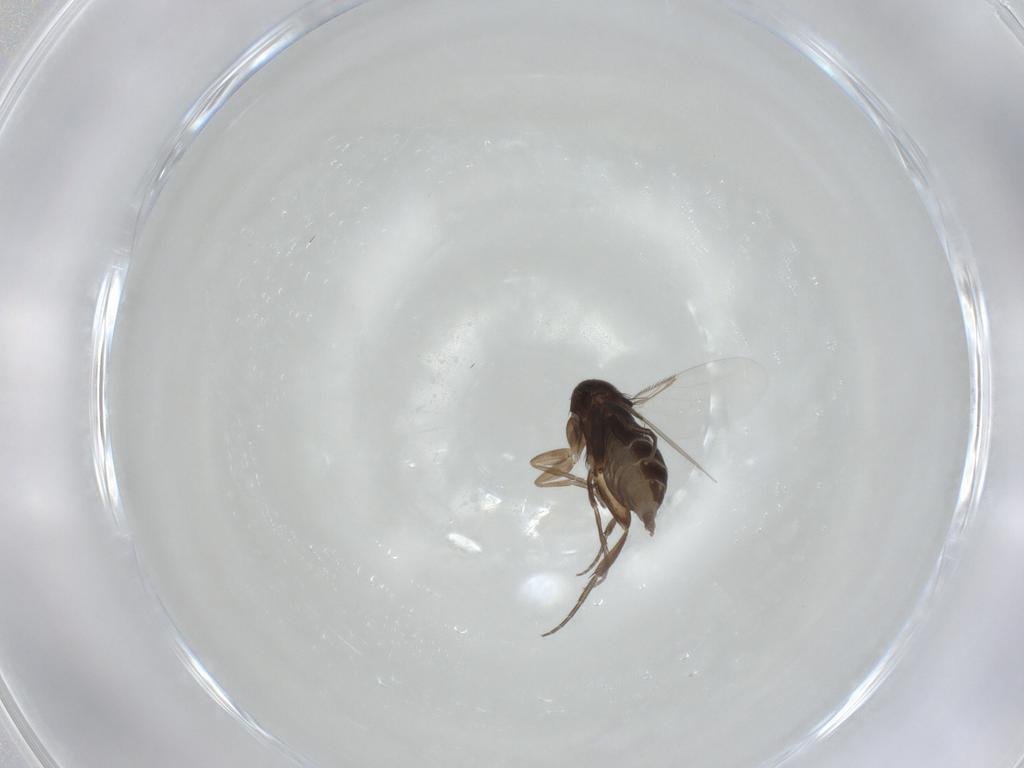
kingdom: Animalia
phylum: Arthropoda
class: Insecta
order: Diptera
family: Phoridae
